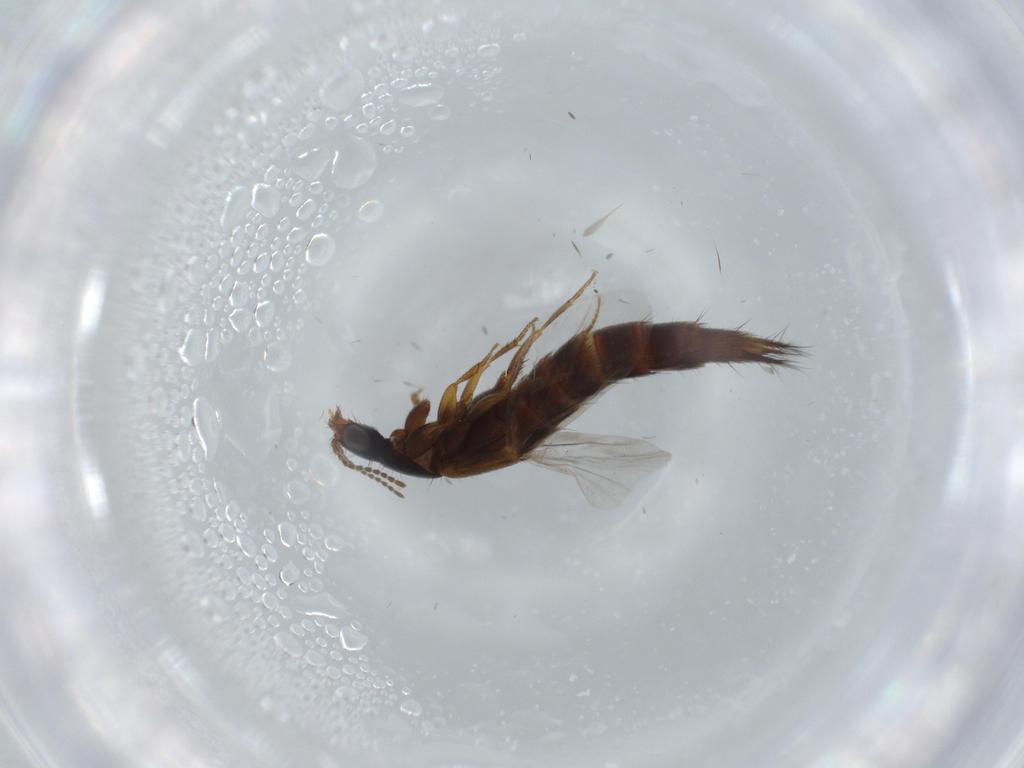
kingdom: Animalia
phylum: Arthropoda
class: Insecta
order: Coleoptera
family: Staphylinidae
